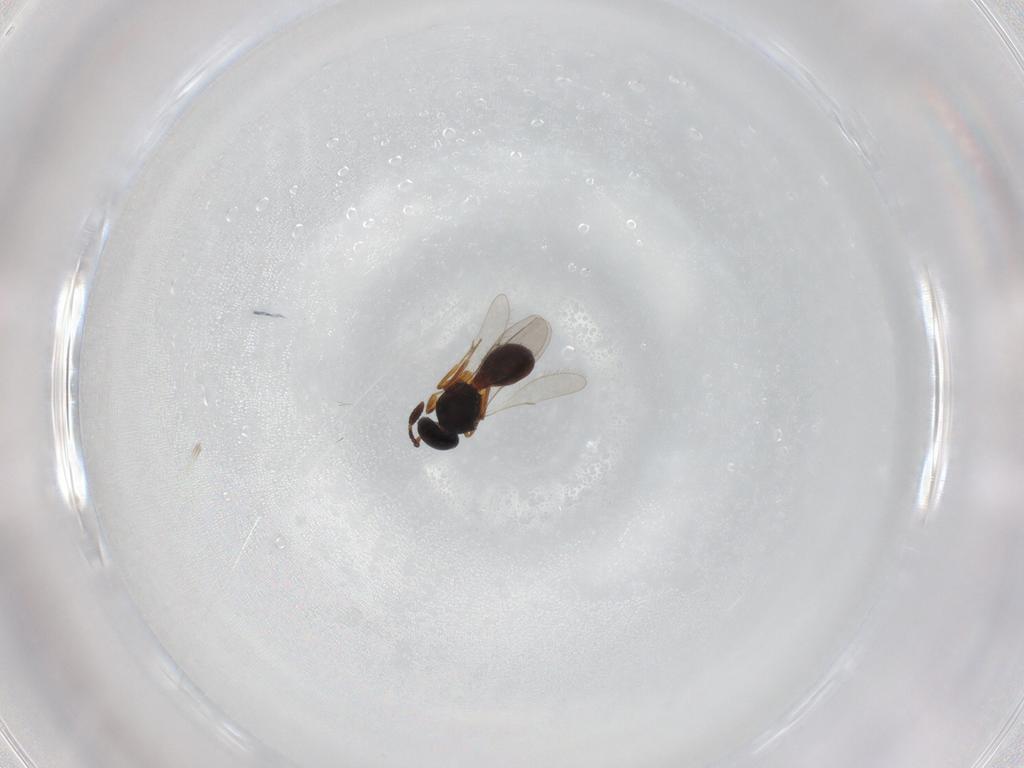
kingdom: Animalia
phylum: Arthropoda
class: Insecta
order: Hymenoptera
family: Scelionidae
